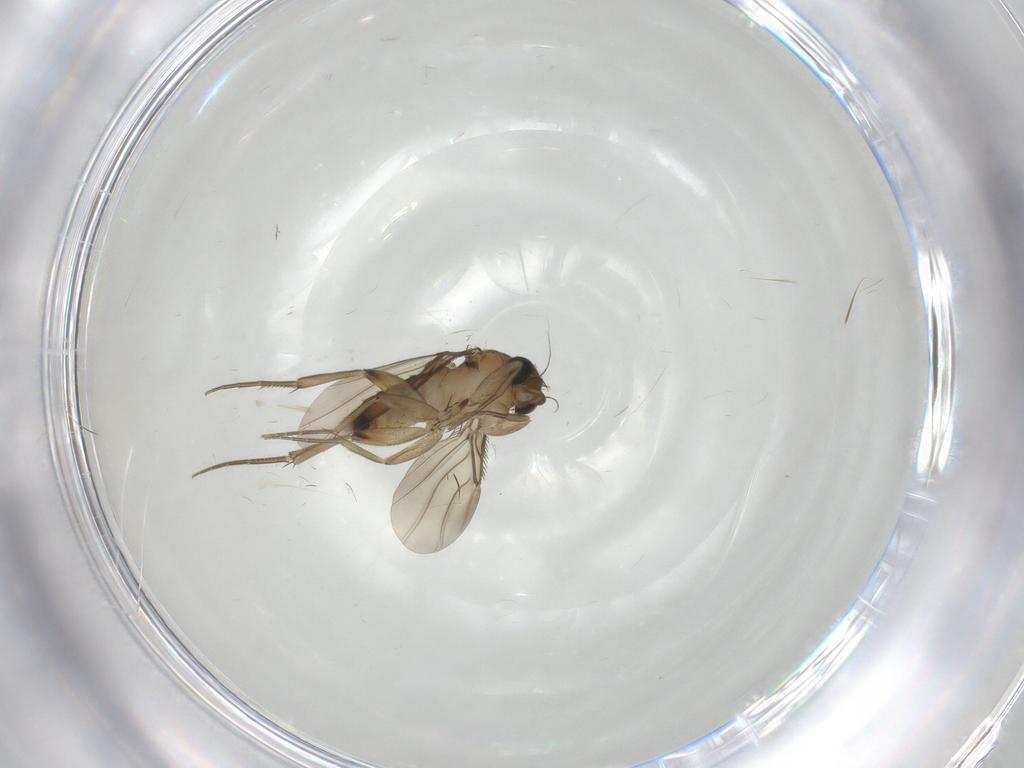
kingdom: Animalia
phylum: Arthropoda
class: Insecta
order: Diptera
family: Phoridae
